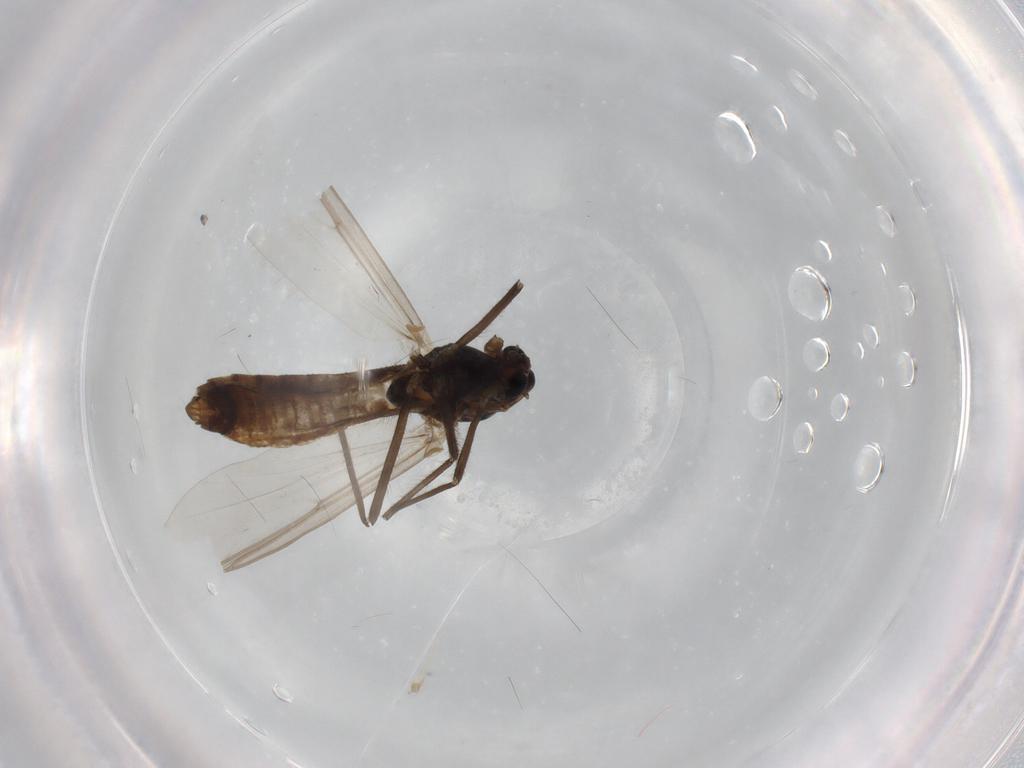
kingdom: Animalia
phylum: Arthropoda
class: Insecta
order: Diptera
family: Chironomidae
